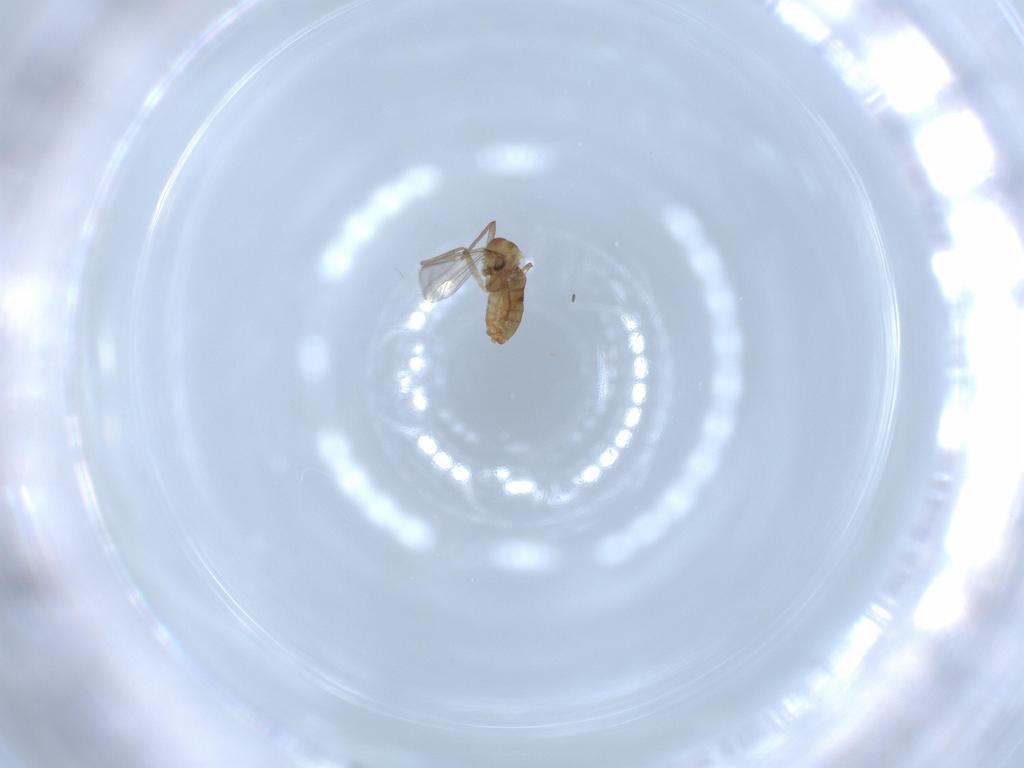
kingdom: Animalia
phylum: Arthropoda
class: Insecta
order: Diptera
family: Chironomidae
